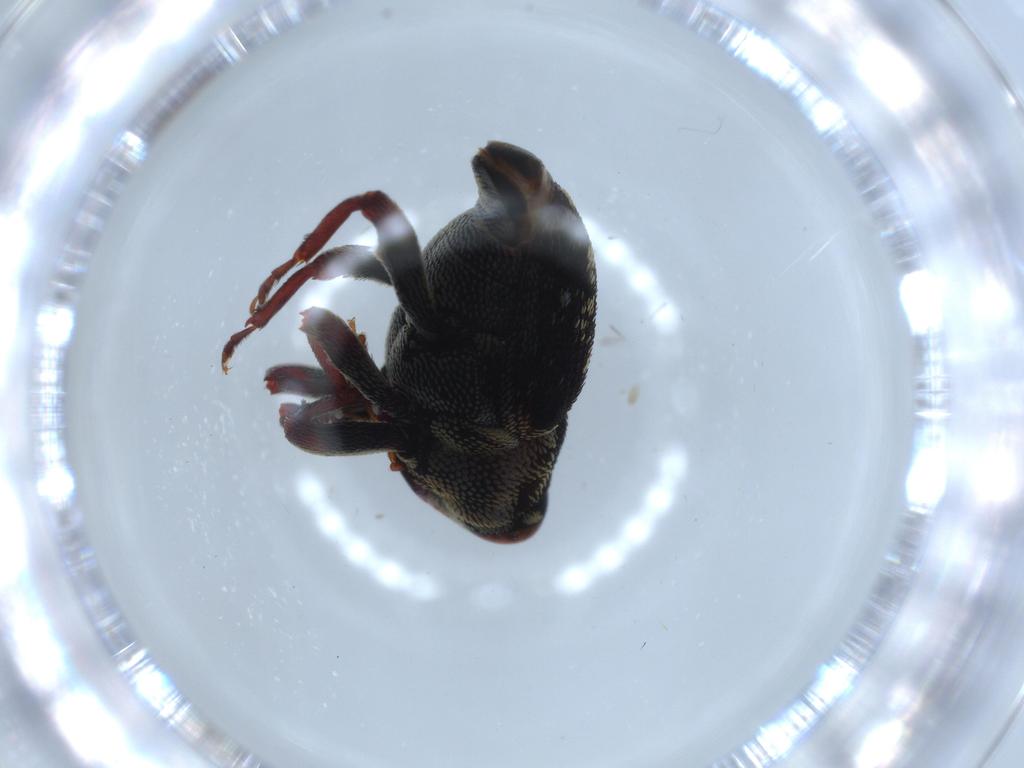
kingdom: Animalia
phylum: Arthropoda
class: Insecta
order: Coleoptera
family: Curculionidae
